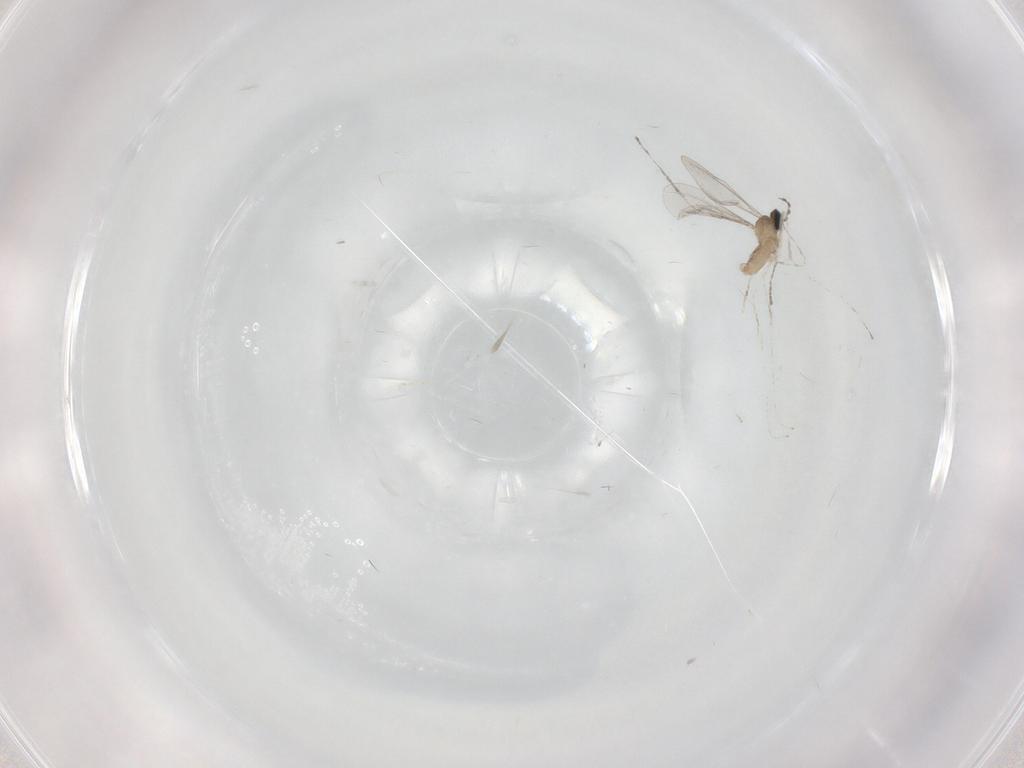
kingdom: Animalia
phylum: Arthropoda
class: Insecta
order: Diptera
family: Cecidomyiidae
